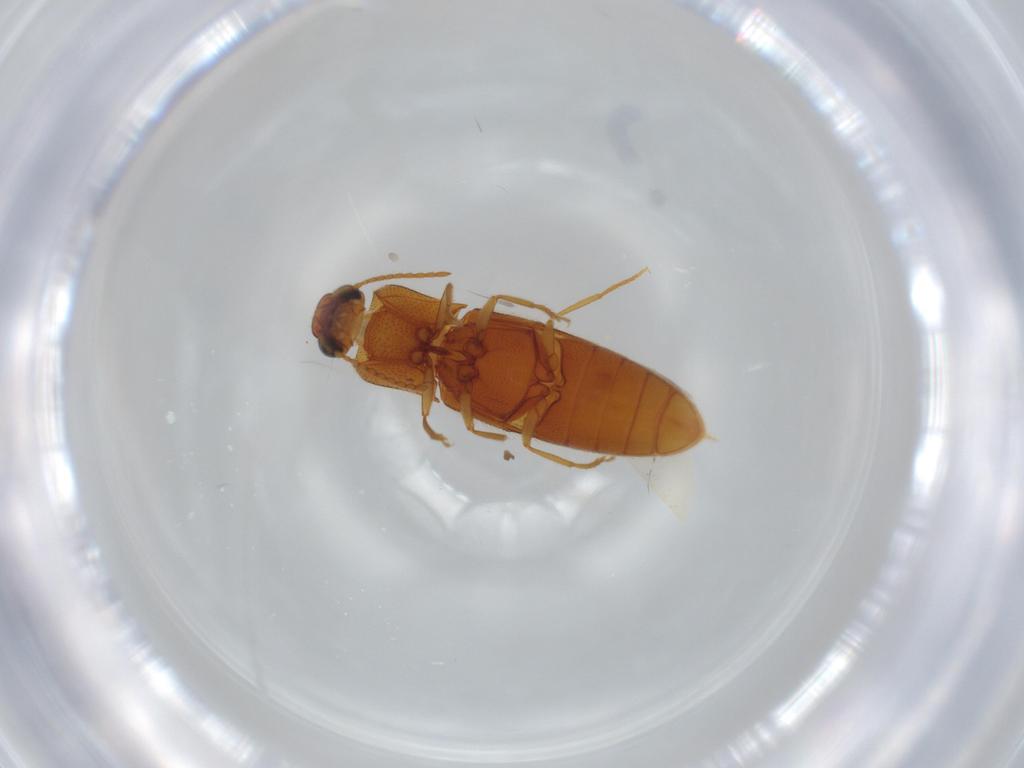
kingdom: Animalia
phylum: Arthropoda
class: Insecta
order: Coleoptera
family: Elateridae
